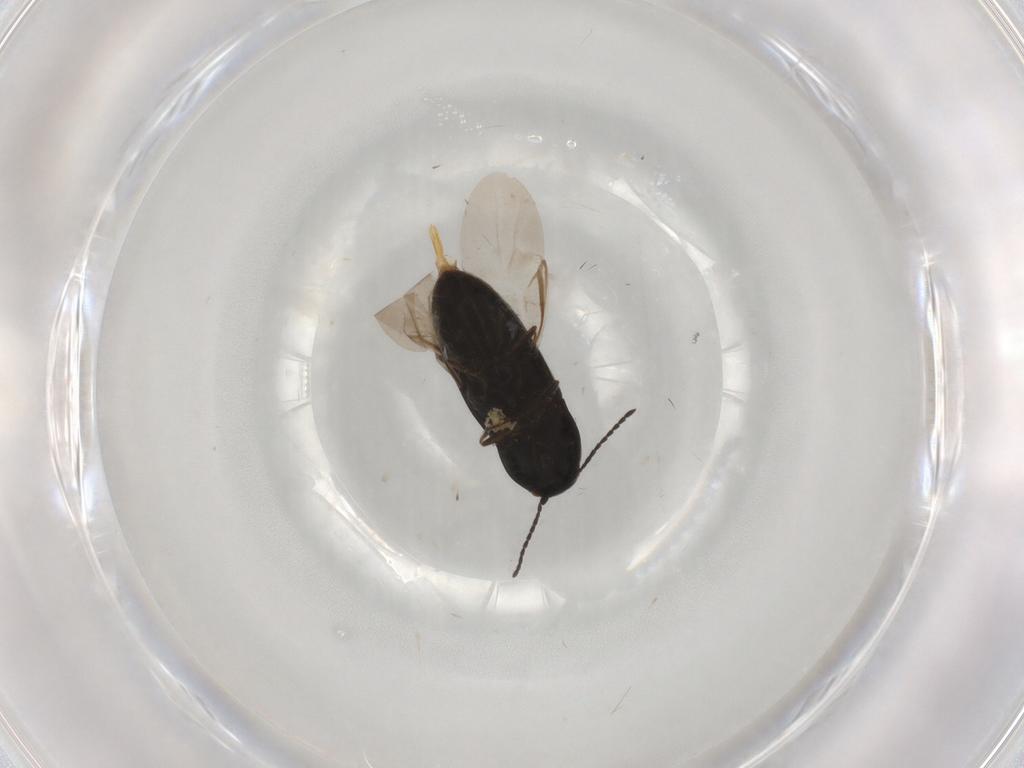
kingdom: Animalia
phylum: Arthropoda
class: Insecta
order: Coleoptera
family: Elateridae
